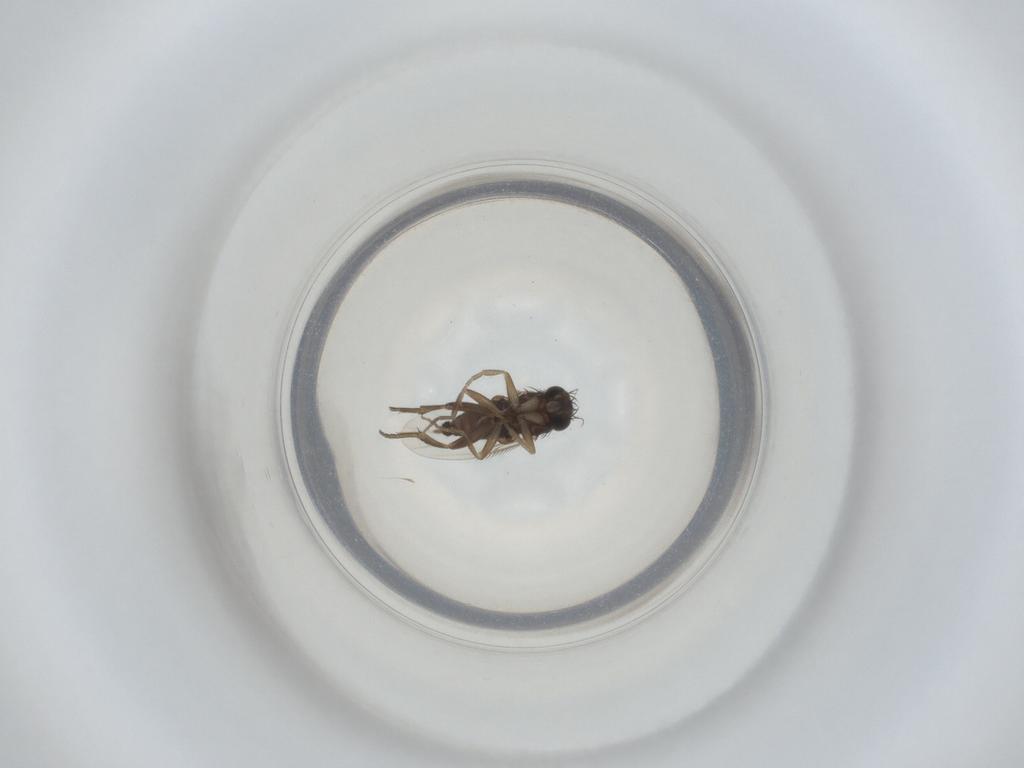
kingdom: Animalia
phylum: Arthropoda
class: Insecta
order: Diptera
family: Phoridae
